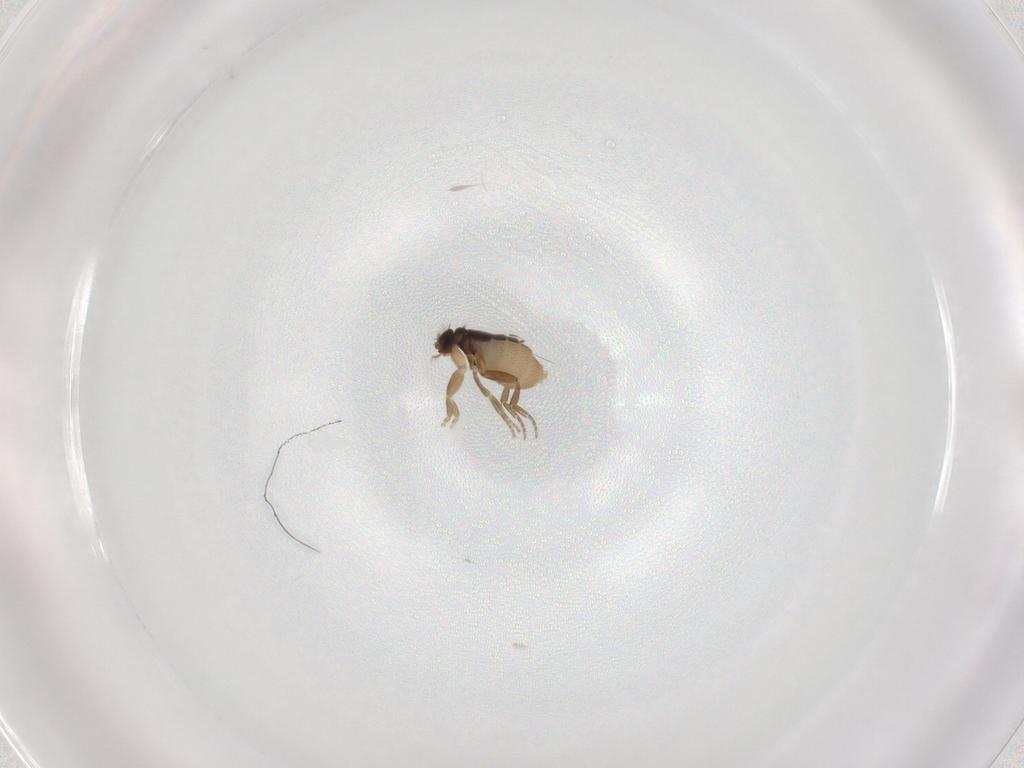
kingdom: Animalia
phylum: Arthropoda
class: Insecta
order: Diptera
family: Phoridae
